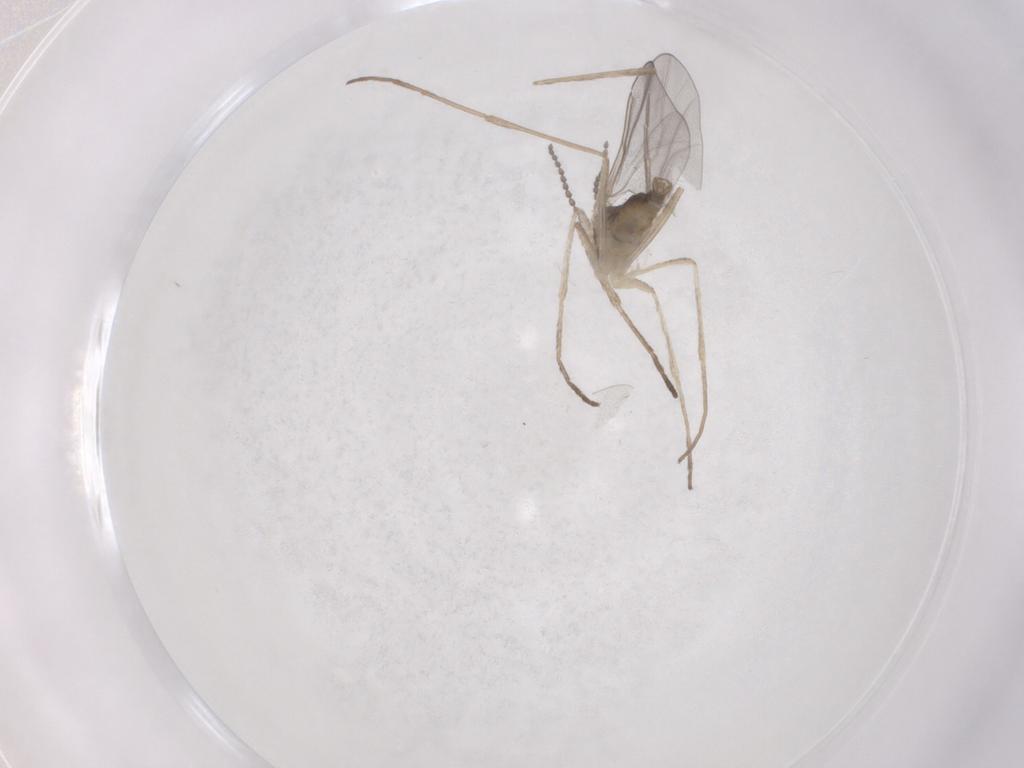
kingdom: Animalia
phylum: Arthropoda
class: Insecta
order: Diptera
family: Cecidomyiidae
